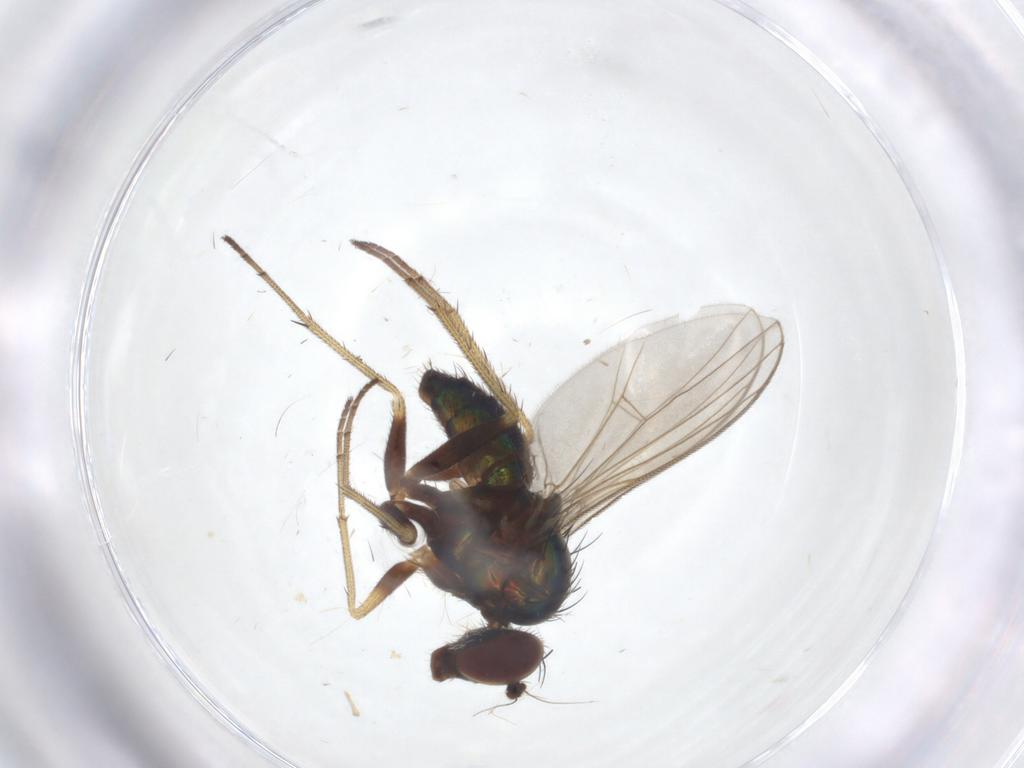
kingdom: Animalia
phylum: Arthropoda
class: Insecta
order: Diptera
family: Dolichopodidae
